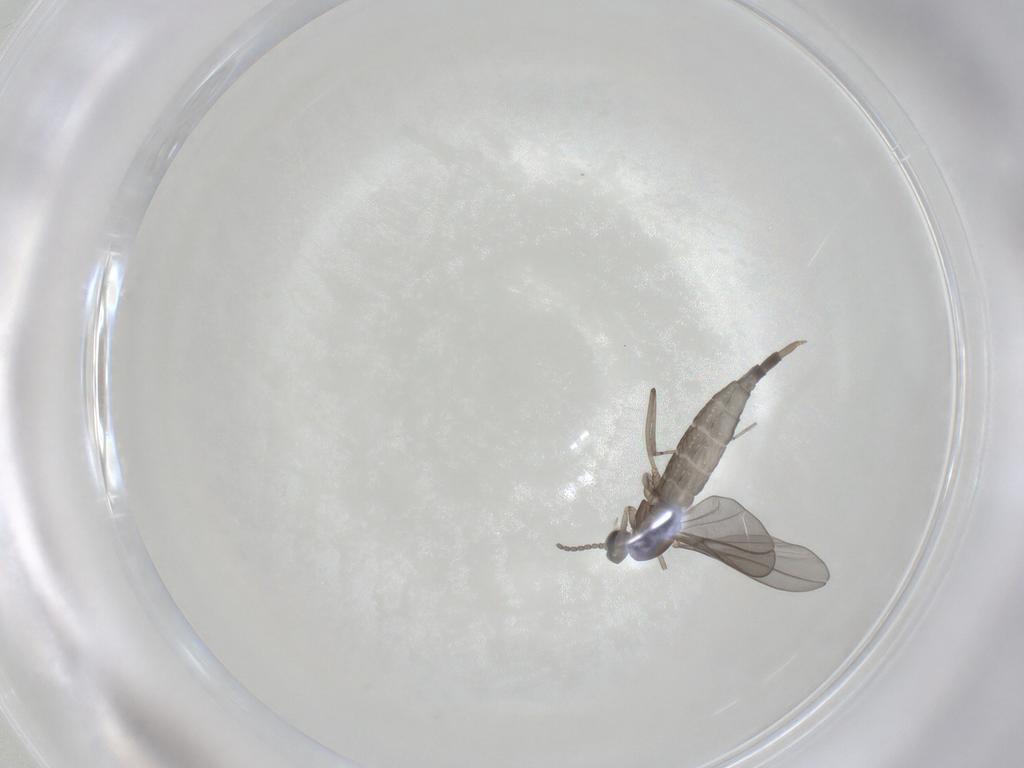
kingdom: Animalia
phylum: Arthropoda
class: Insecta
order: Diptera
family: Cecidomyiidae
